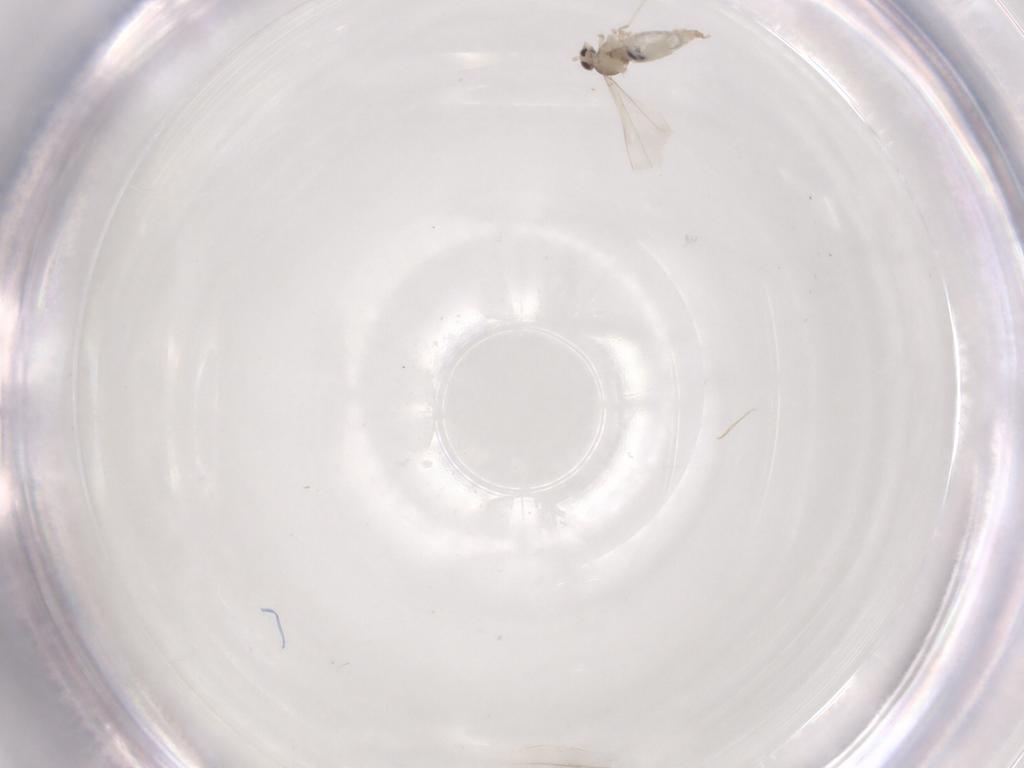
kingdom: Animalia
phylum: Arthropoda
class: Insecta
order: Diptera
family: Cecidomyiidae
